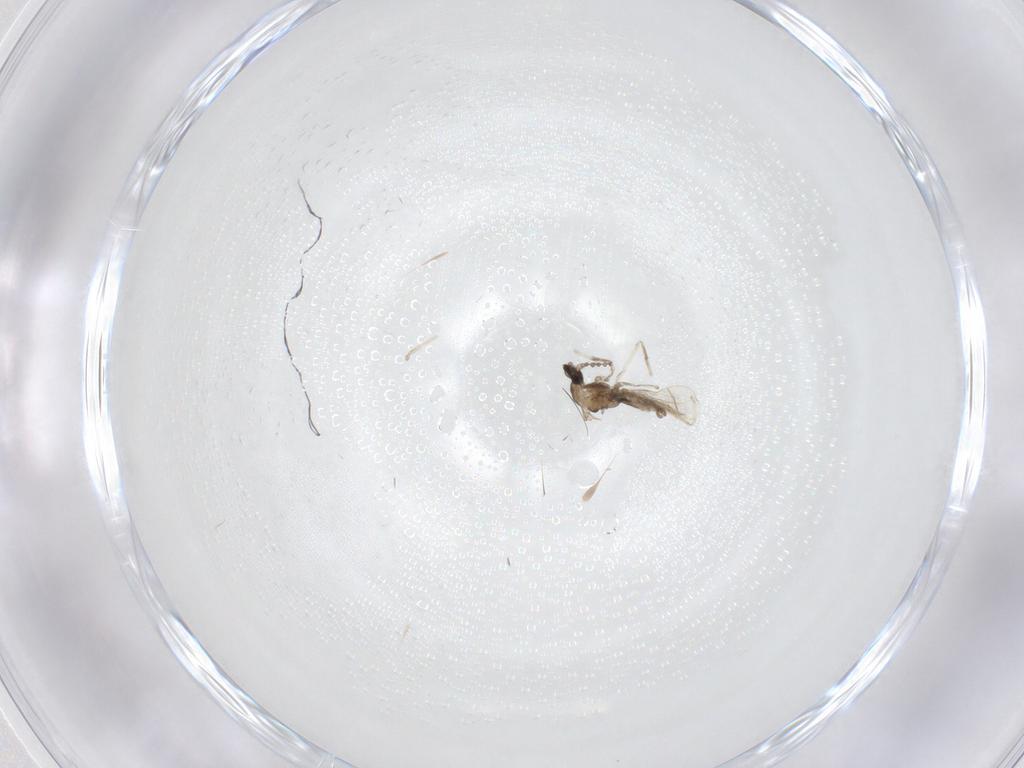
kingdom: Animalia
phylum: Arthropoda
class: Insecta
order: Diptera
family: Cecidomyiidae
